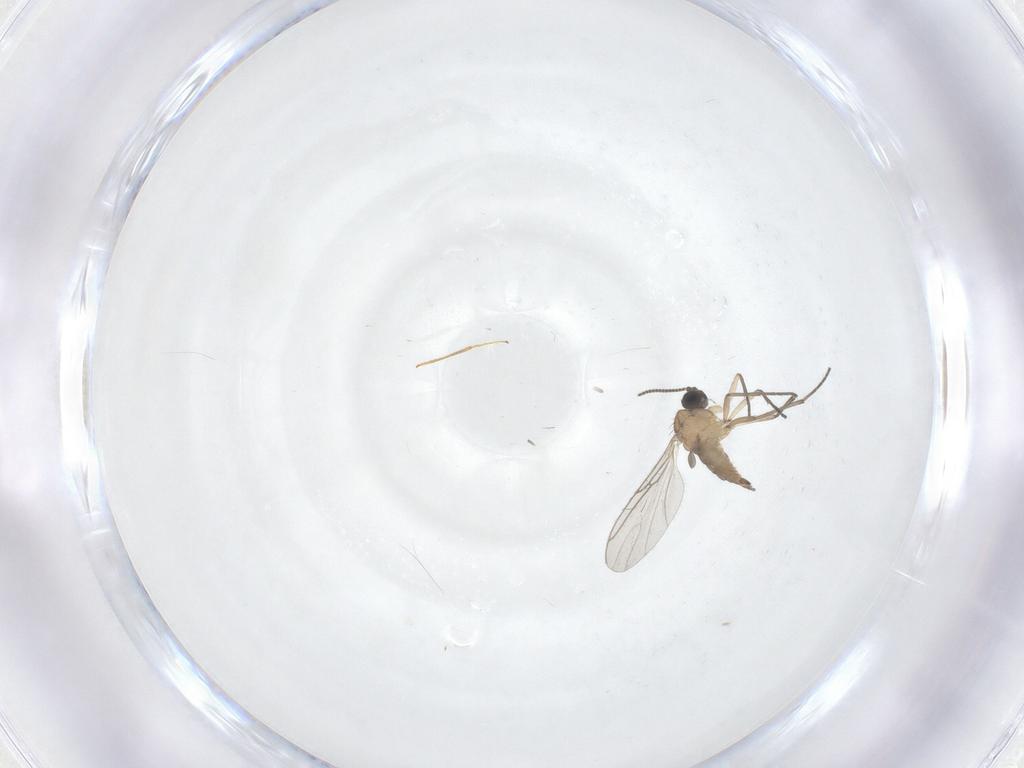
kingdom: Animalia
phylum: Arthropoda
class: Insecta
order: Diptera
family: Sciaridae
